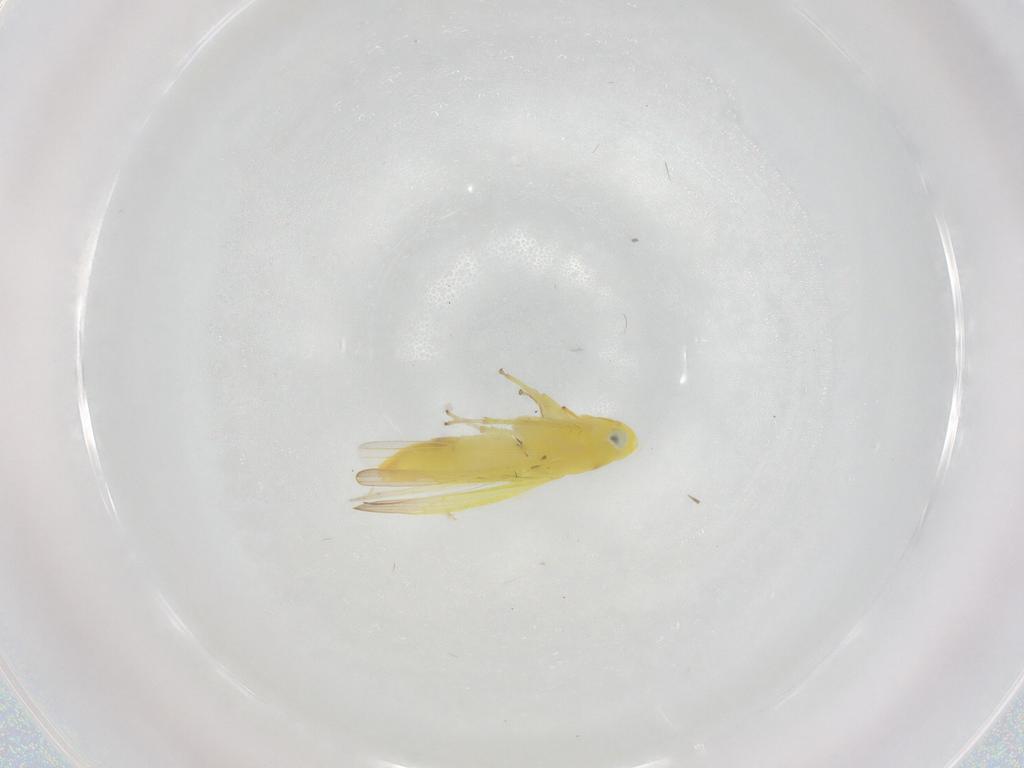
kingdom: Animalia
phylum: Arthropoda
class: Insecta
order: Hemiptera
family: Cicadellidae
